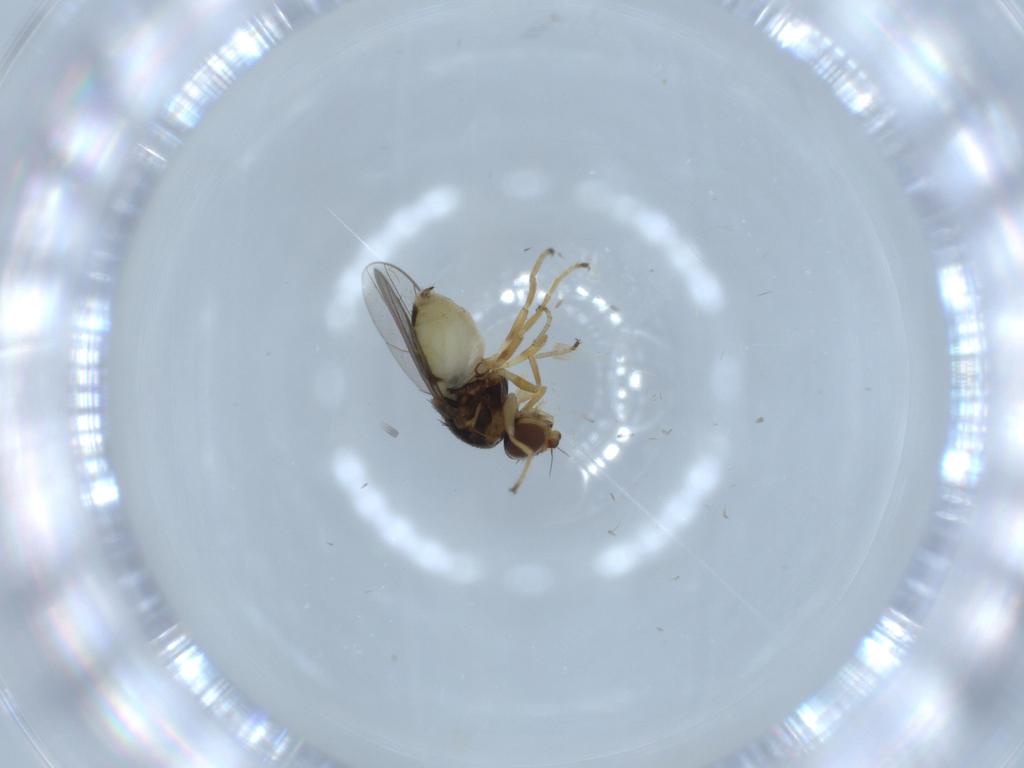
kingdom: Animalia
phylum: Arthropoda
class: Insecta
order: Diptera
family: Chloropidae
